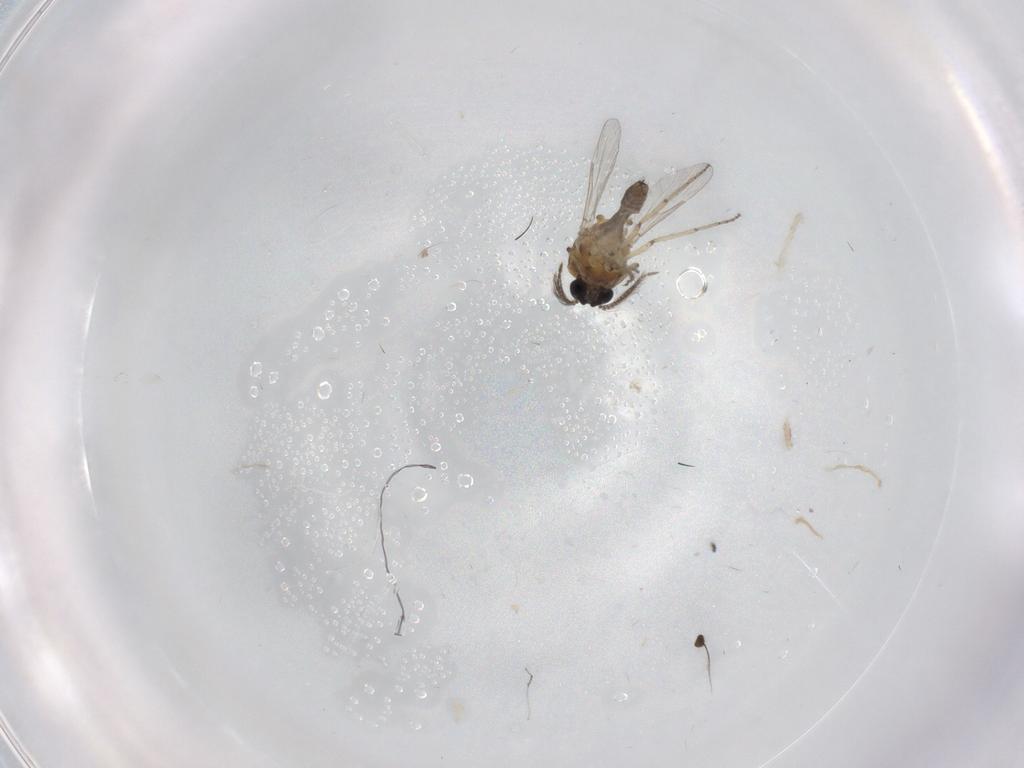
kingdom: Animalia
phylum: Arthropoda
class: Insecta
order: Diptera
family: Ceratopogonidae
